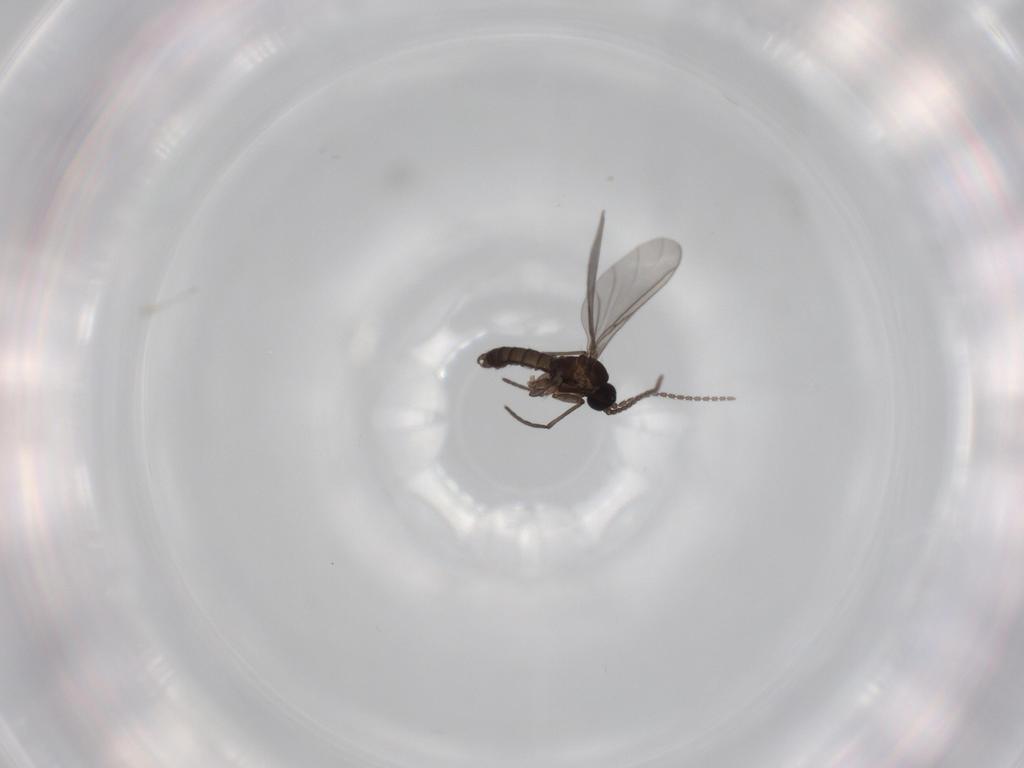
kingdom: Animalia
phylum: Arthropoda
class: Insecta
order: Diptera
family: Sciaridae
